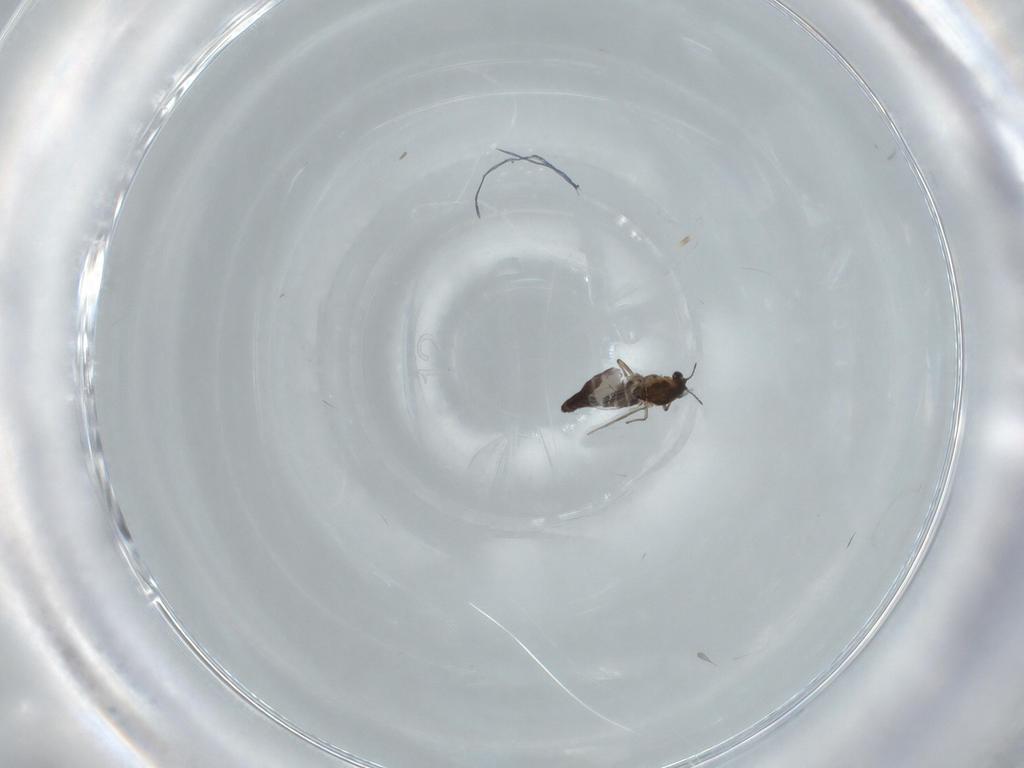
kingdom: Animalia
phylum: Arthropoda
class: Insecta
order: Diptera
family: Chironomidae
